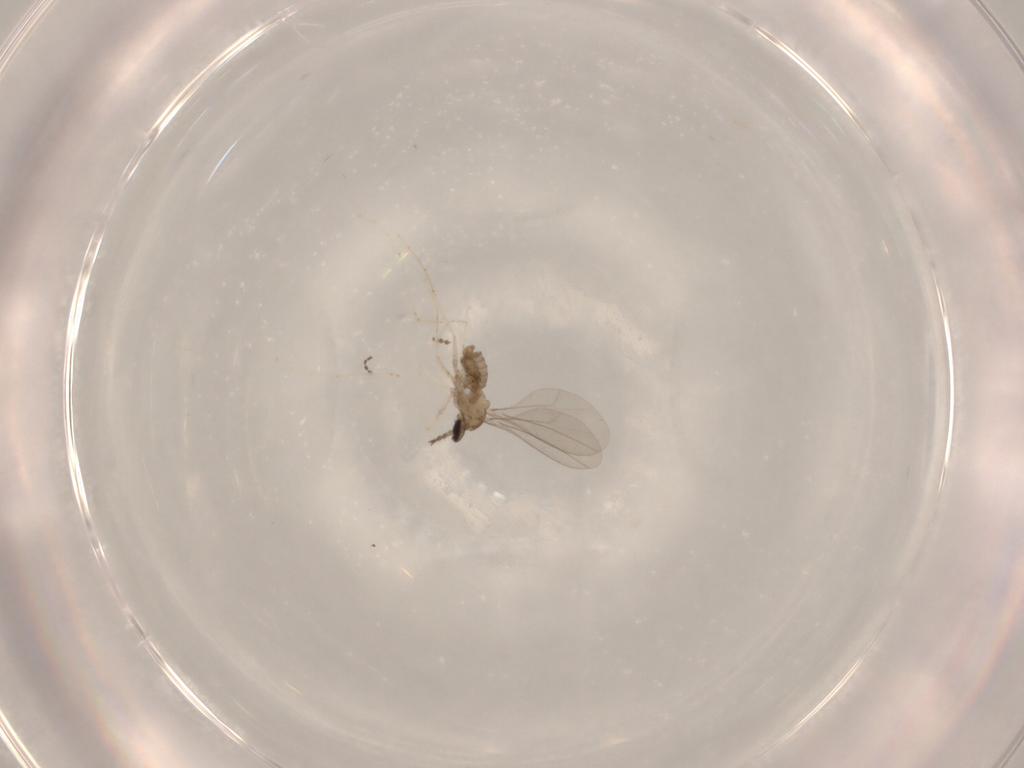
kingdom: Animalia
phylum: Arthropoda
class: Insecta
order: Diptera
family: Cecidomyiidae
